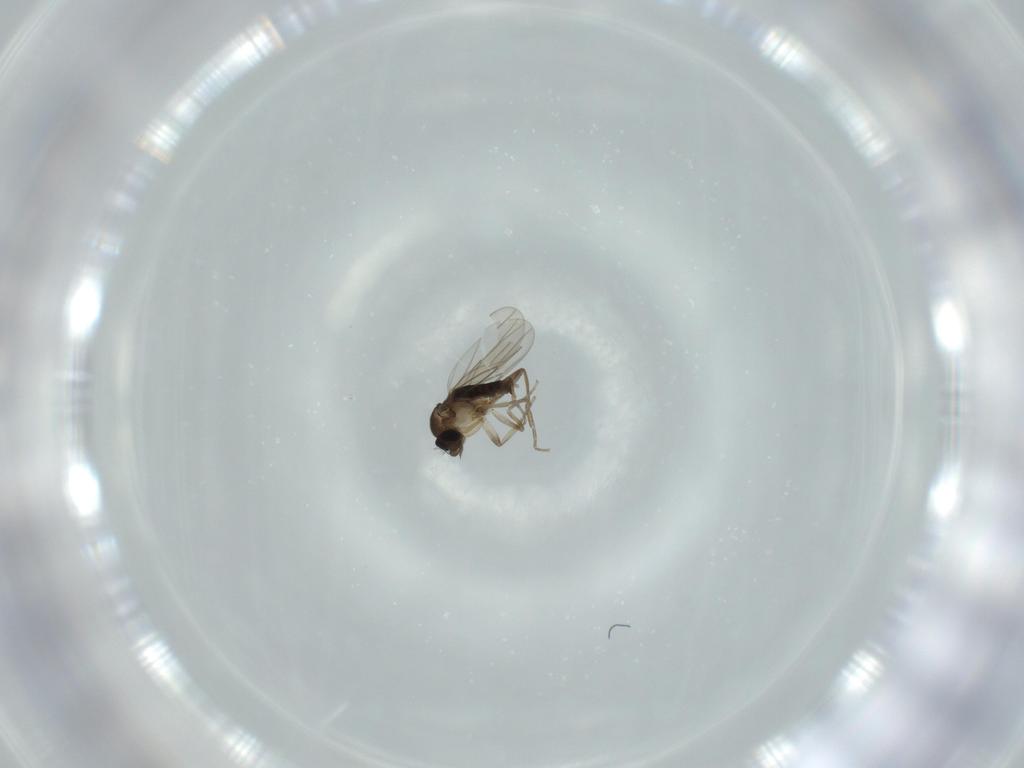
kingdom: Animalia
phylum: Arthropoda
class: Insecta
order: Diptera
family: Phoridae
